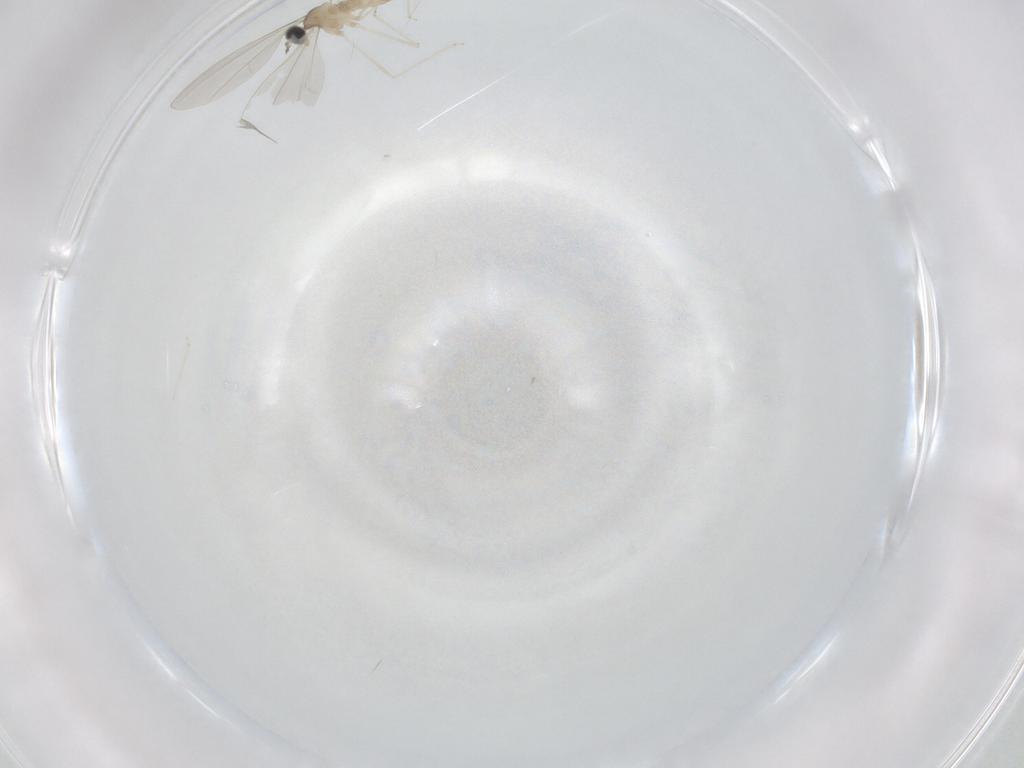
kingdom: Animalia
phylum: Arthropoda
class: Insecta
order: Diptera
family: Cecidomyiidae
